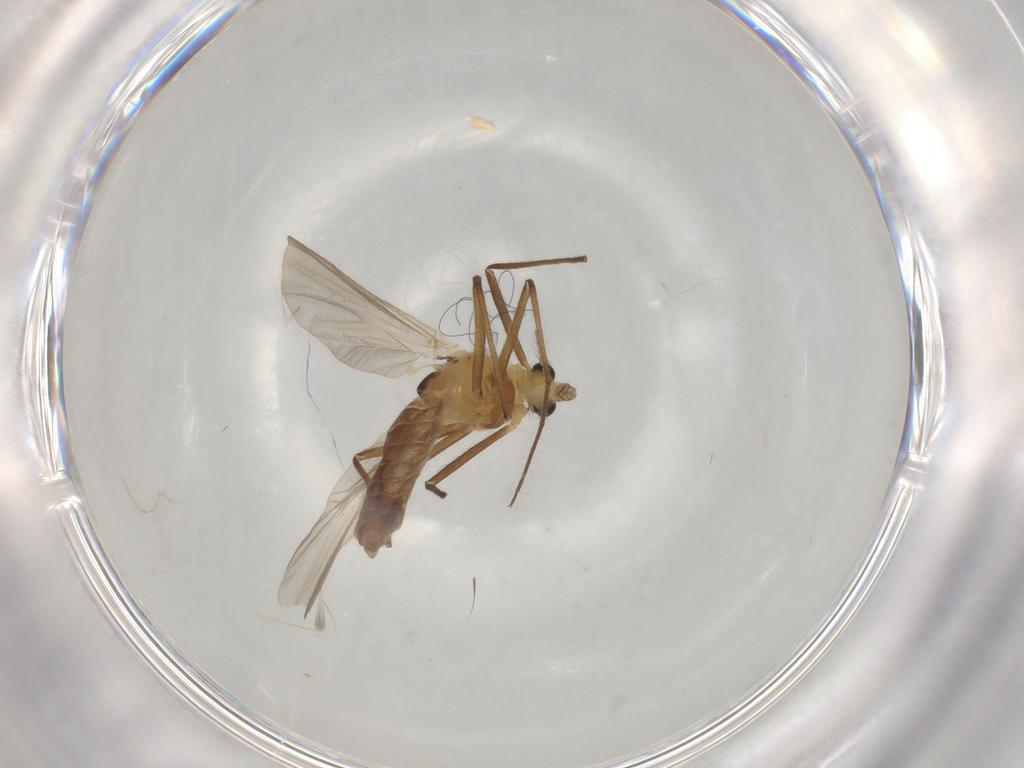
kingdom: Animalia
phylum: Arthropoda
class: Insecta
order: Diptera
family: Chironomidae
